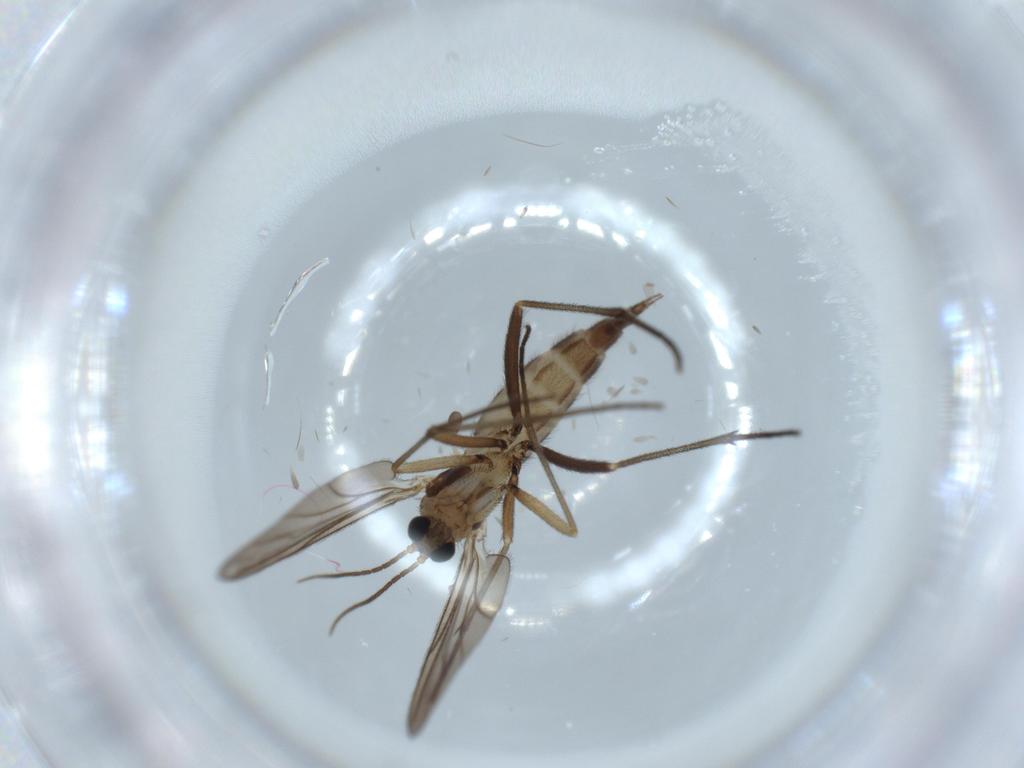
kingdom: Animalia
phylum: Arthropoda
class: Insecta
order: Diptera
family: Sciaridae
